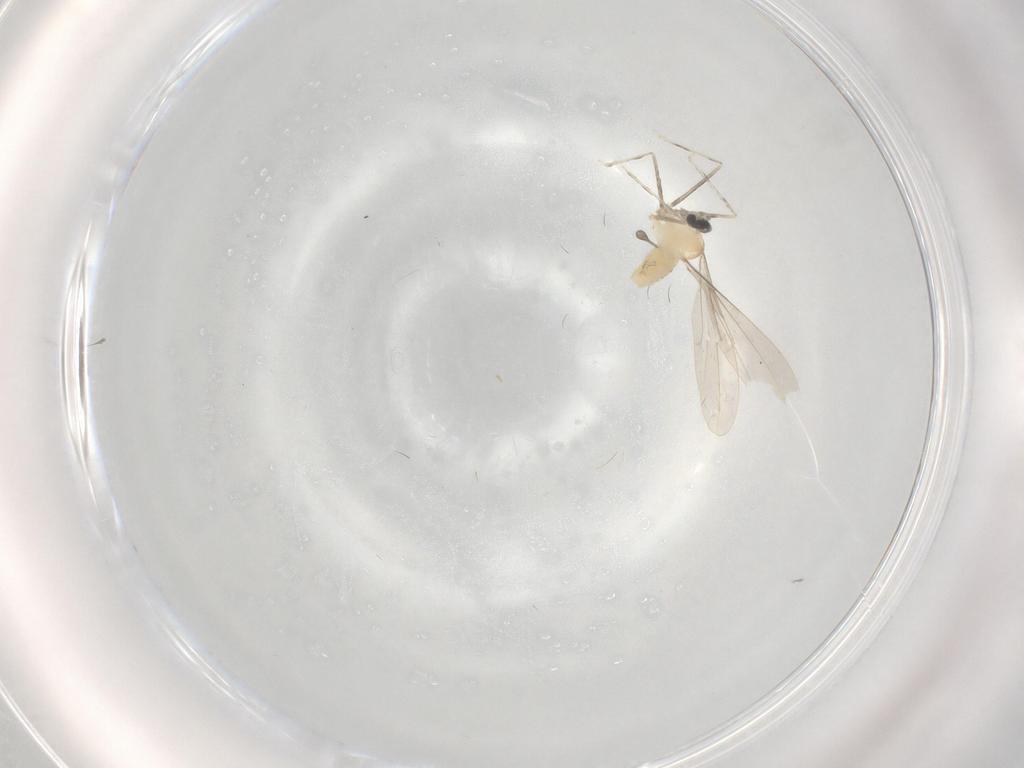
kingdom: Animalia
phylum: Arthropoda
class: Insecta
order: Diptera
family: Cecidomyiidae
